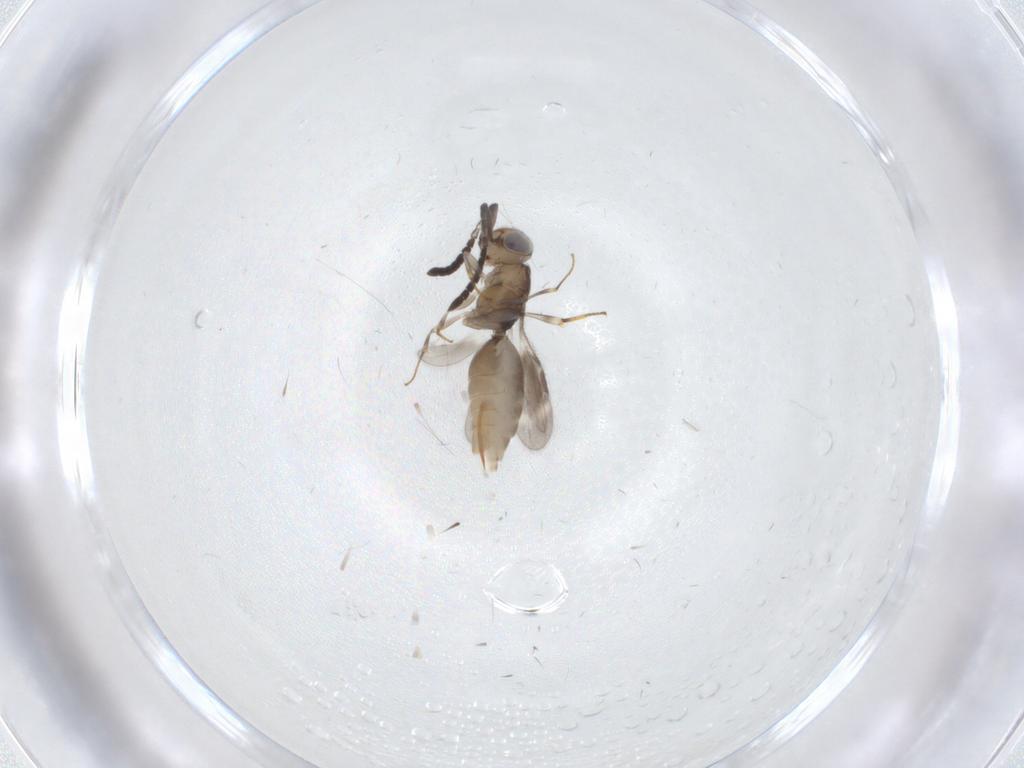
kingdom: Animalia
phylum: Arthropoda
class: Insecta
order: Hymenoptera
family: Megaspilidae
